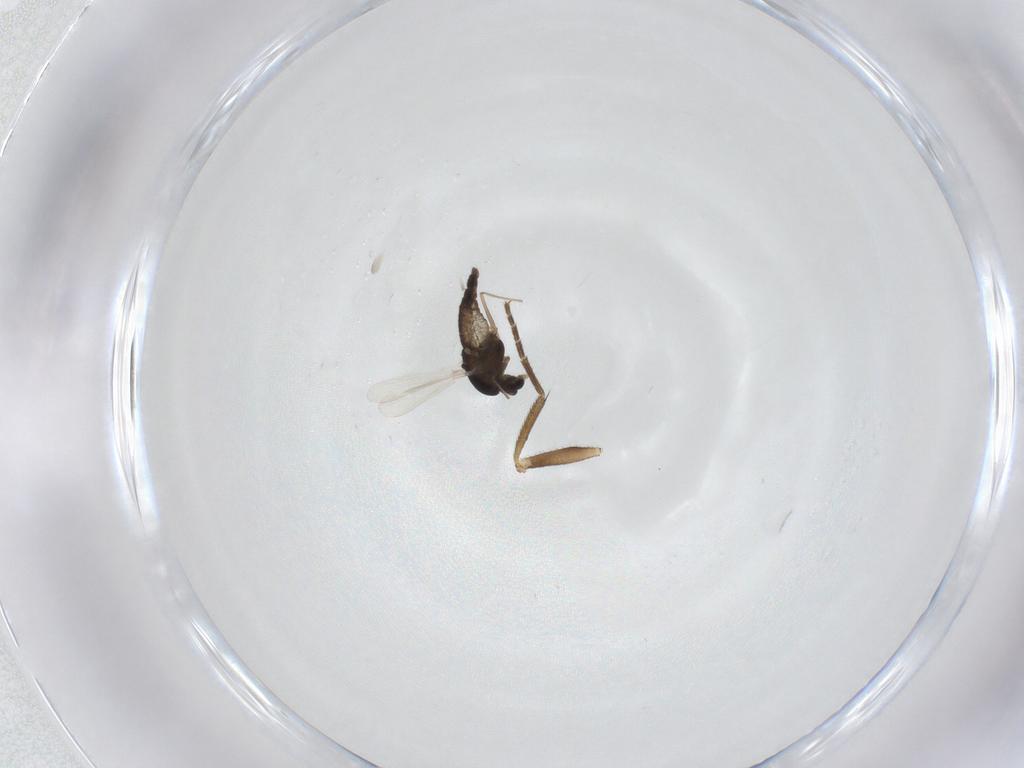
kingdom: Animalia
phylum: Arthropoda
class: Insecta
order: Diptera
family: Chironomidae
